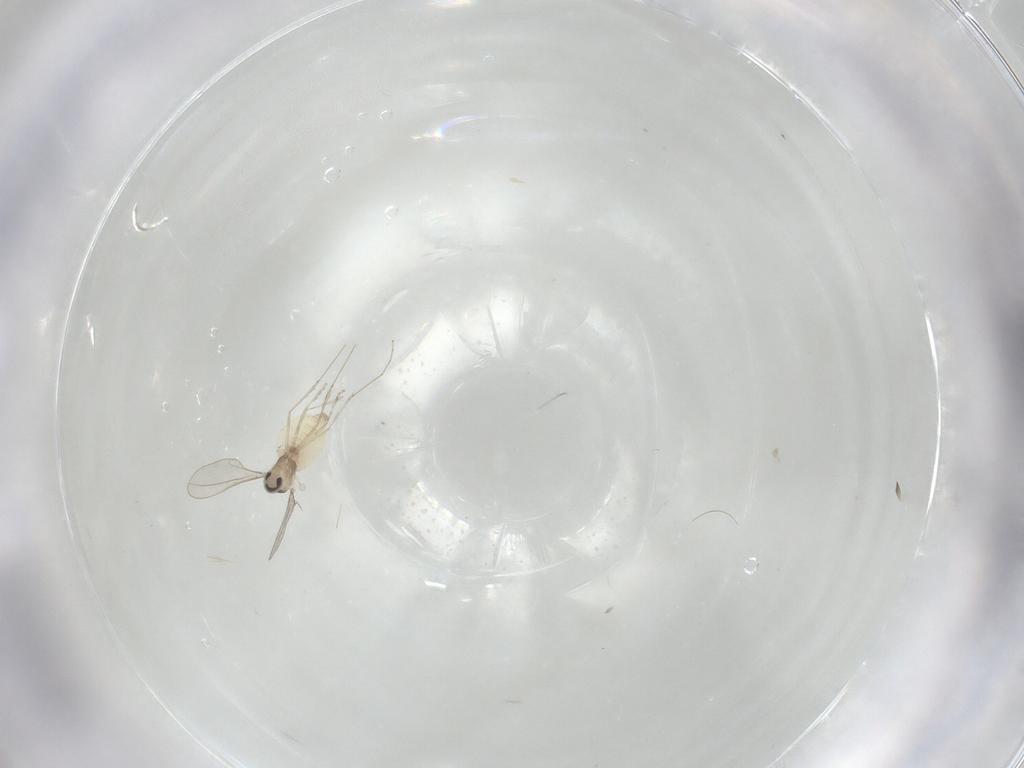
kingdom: Animalia
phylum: Arthropoda
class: Insecta
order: Diptera
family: Cecidomyiidae
